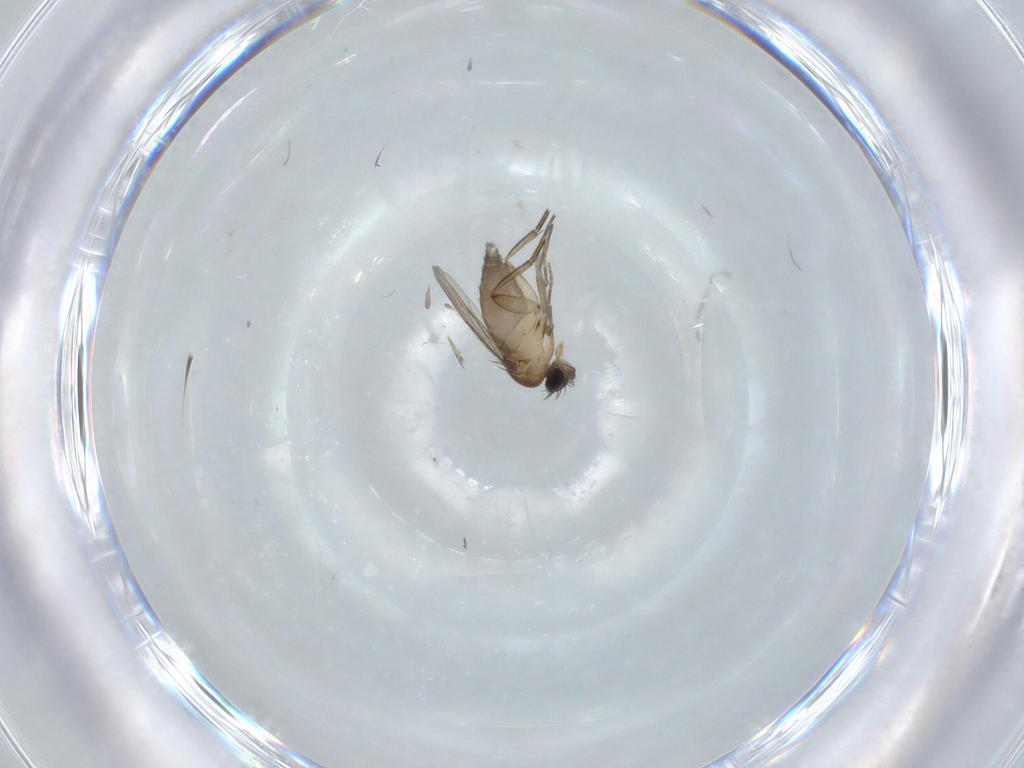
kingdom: Animalia
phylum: Arthropoda
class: Insecta
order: Diptera
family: Phoridae
